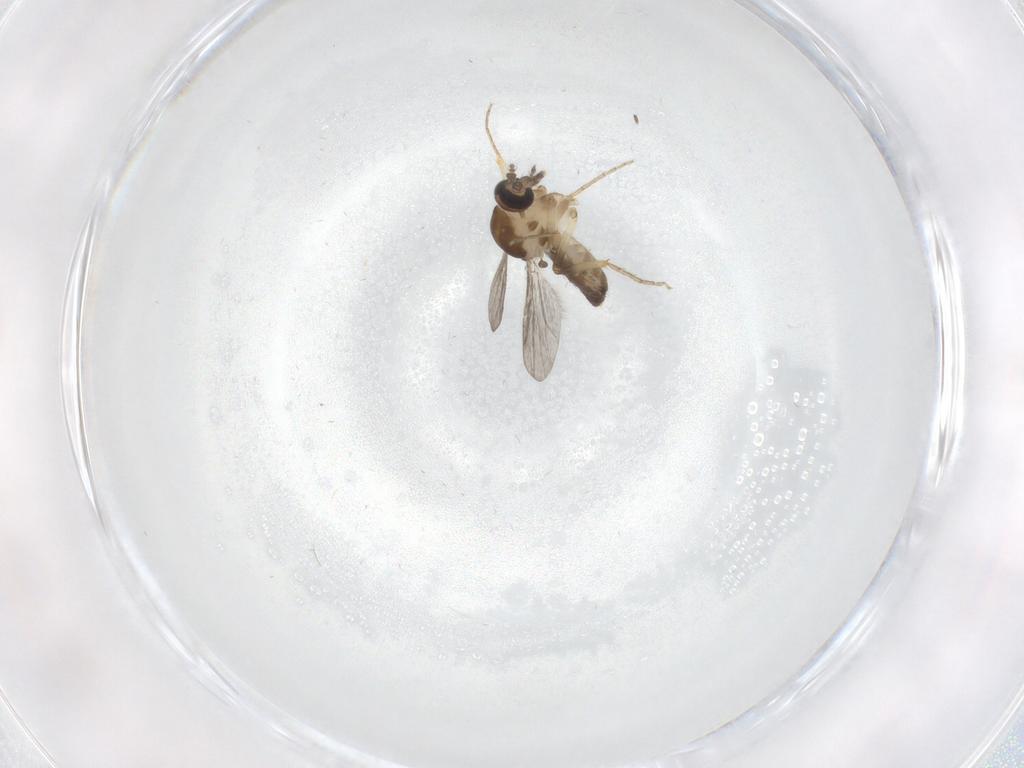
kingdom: Animalia
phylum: Arthropoda
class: Insecta
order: Diptera
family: Ceratopogonidae
